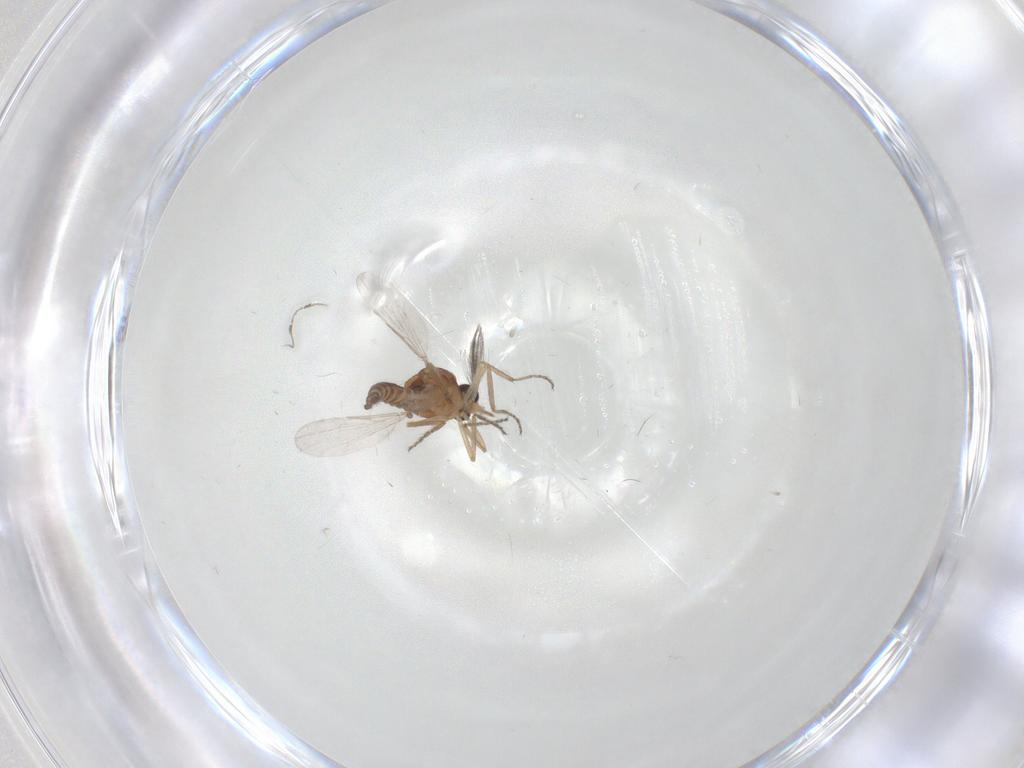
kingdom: Animalia
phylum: Arthropoda
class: Insecta
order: Diptera
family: Ceratopogonidae
